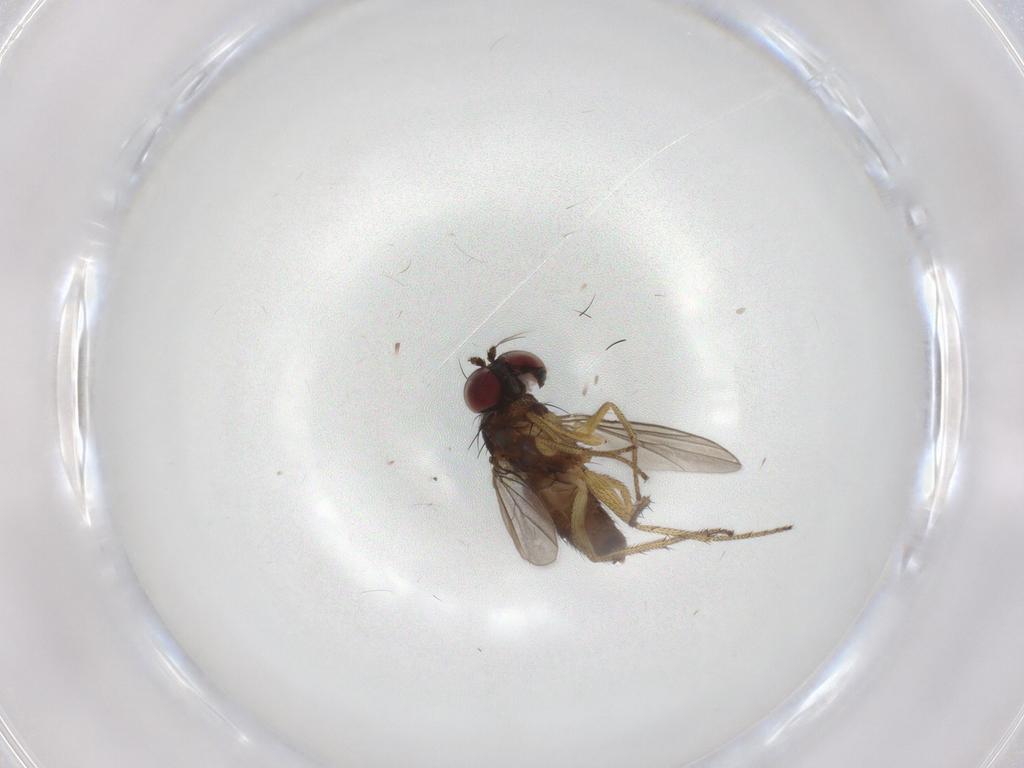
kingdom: Animalia
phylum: Arthropoda
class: Insecta
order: Diptera
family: Dolichopodidae
